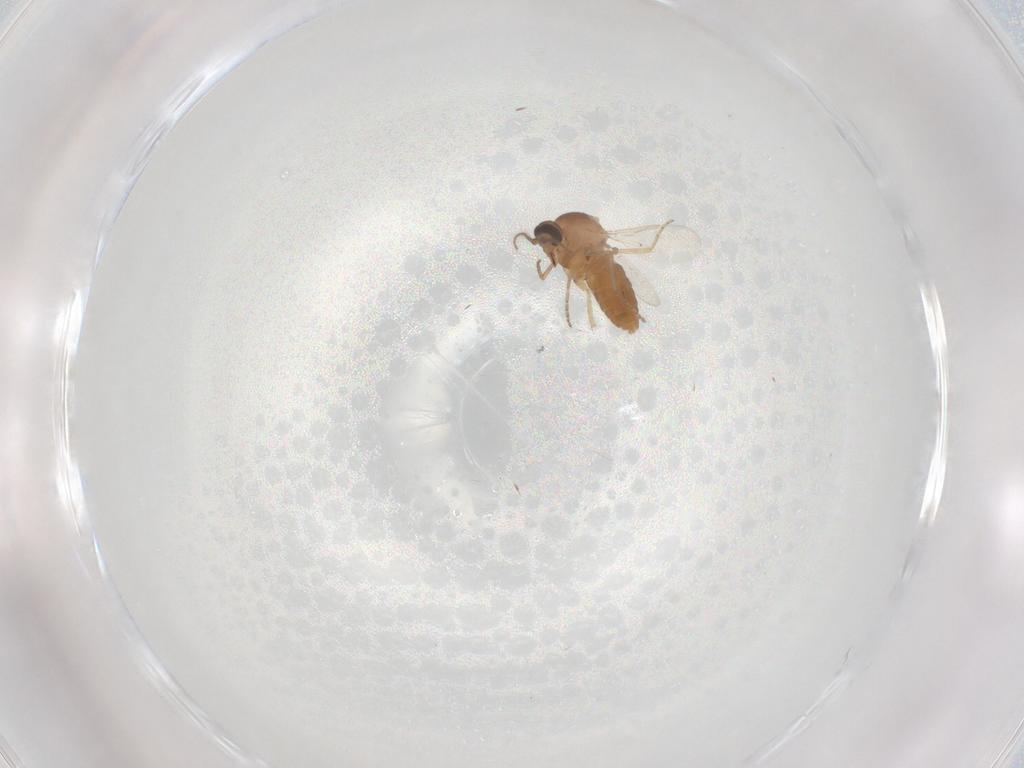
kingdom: Animalia
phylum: Arthropoda
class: Insecta
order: Diptera
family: Ceratopogonidae
